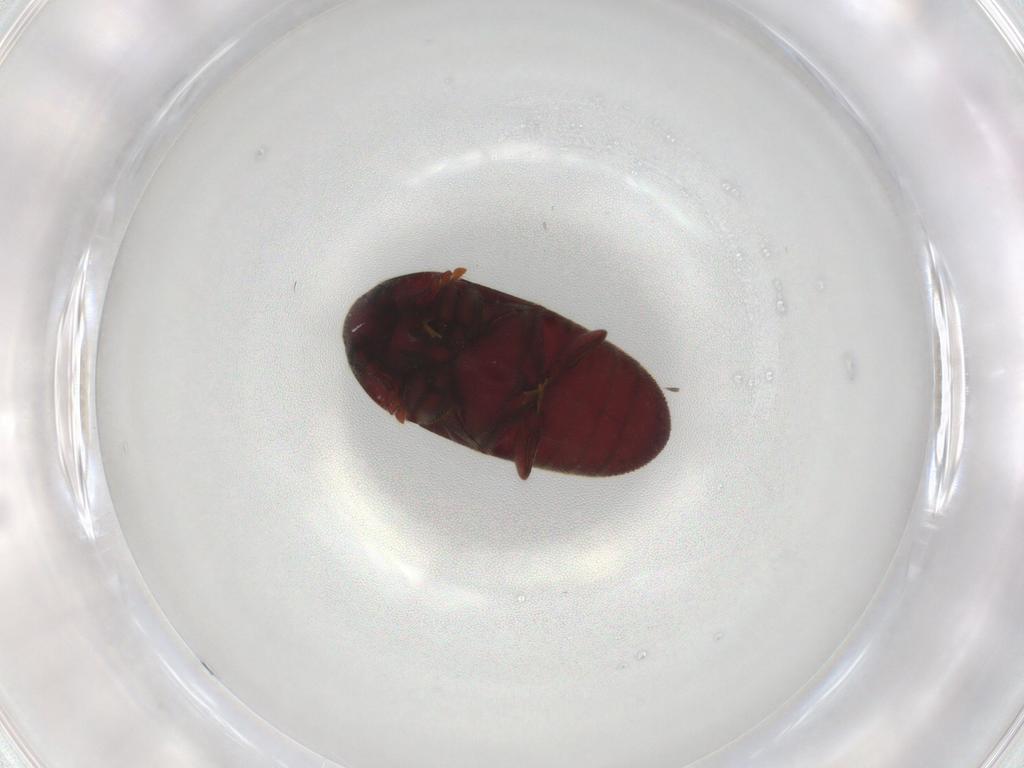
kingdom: Animalia
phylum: Arthropoda
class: Insecta
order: Coleoptera
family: Throscidae
